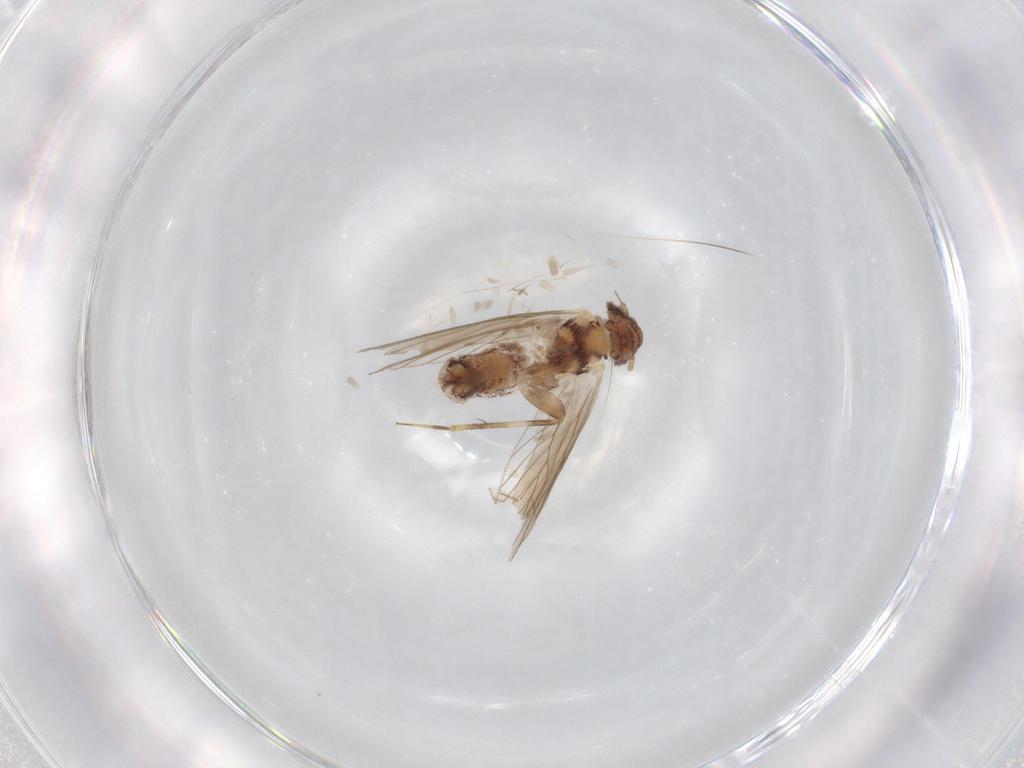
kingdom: Animalia
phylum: Arthropoda
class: Insecta
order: Psocodea
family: Lepidopsocidae
